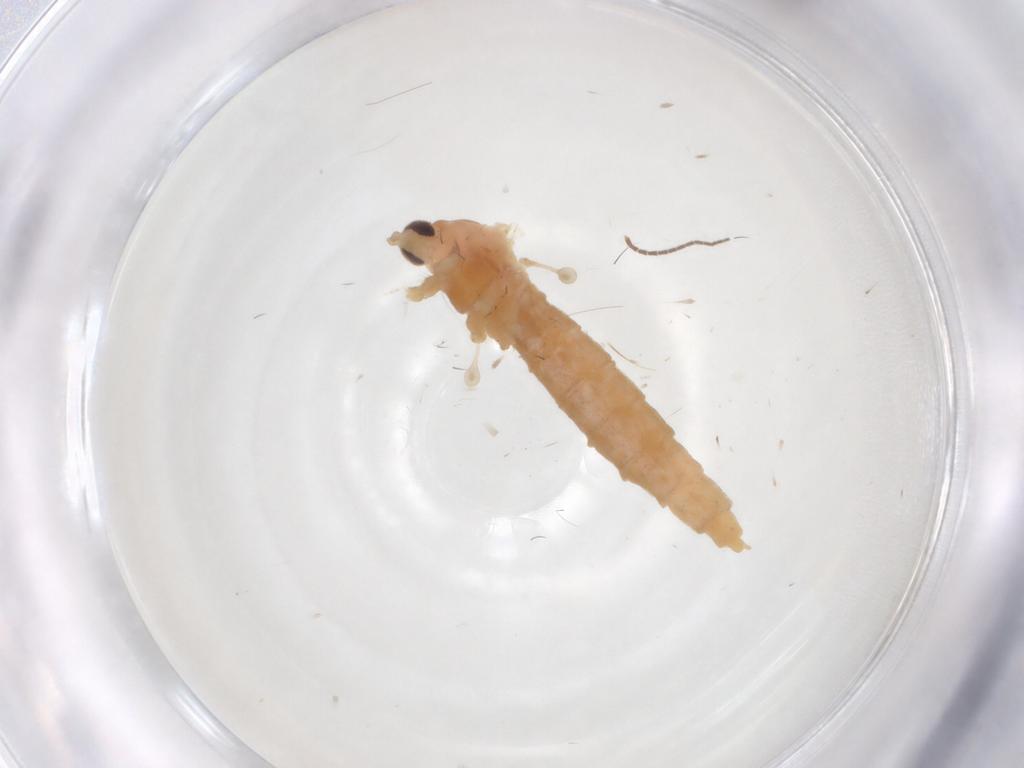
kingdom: Animalia
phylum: Arthropoda
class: Insecta
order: Diptera
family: Cecidomyiidae
